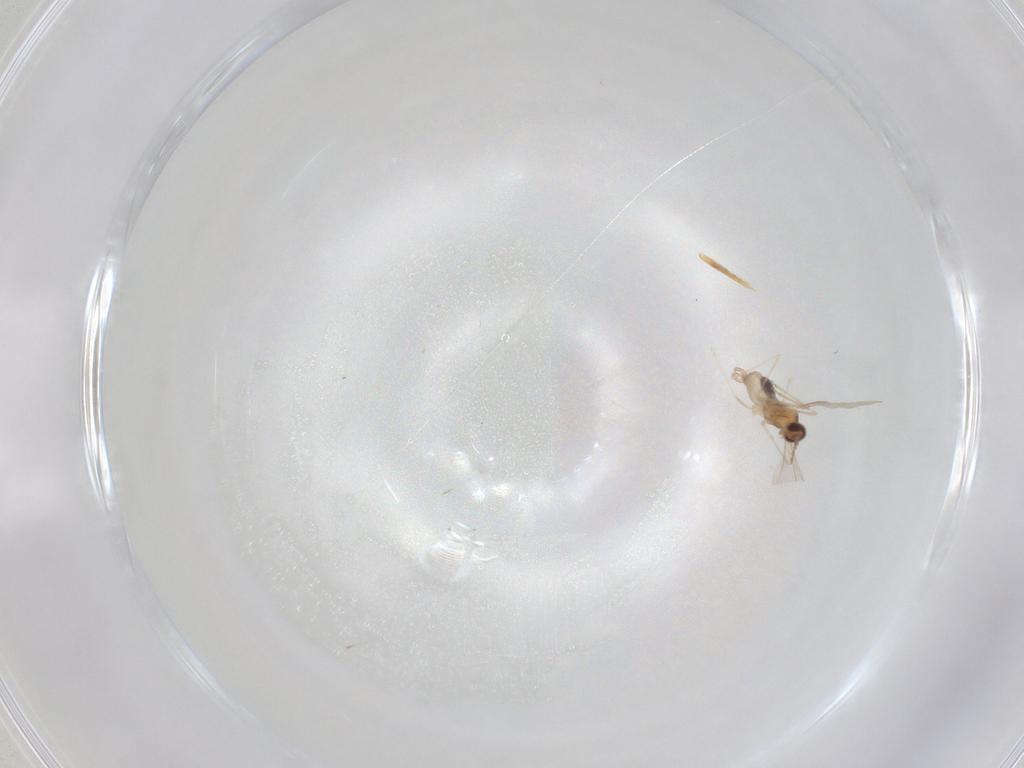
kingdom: Animalia
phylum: Arthropoda
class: Insecta
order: Diptera
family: Cecidomyiidae
